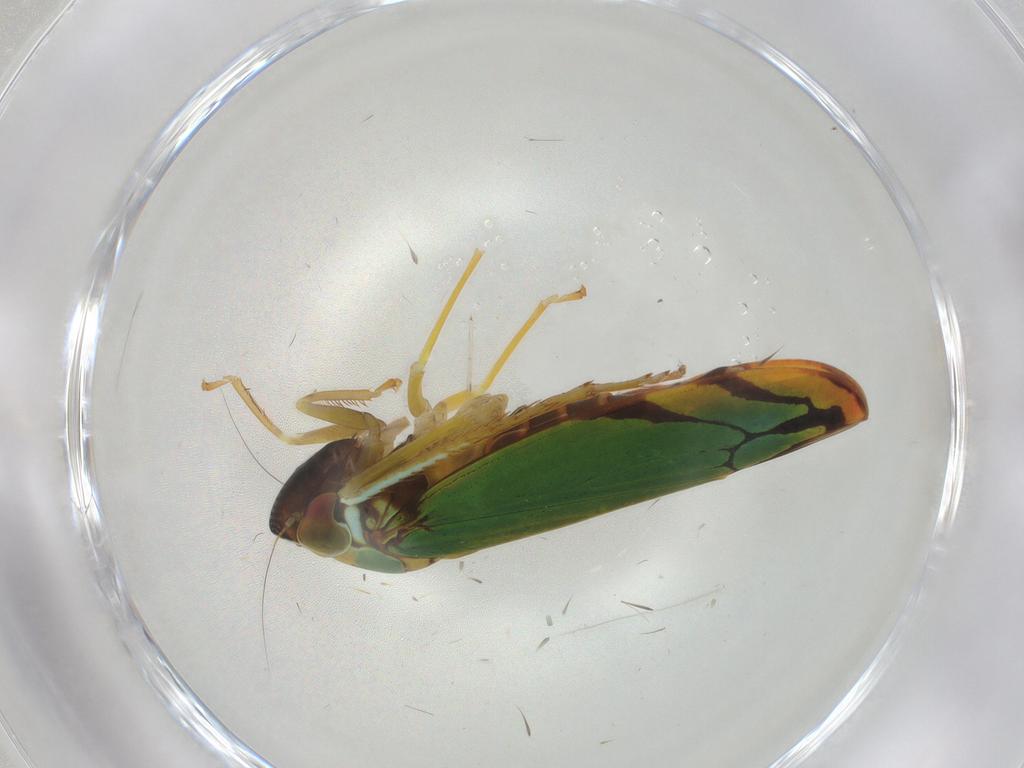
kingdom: Animalia
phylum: Arthropoda
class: Insecta
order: Hemiptera
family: Cicadellidae
